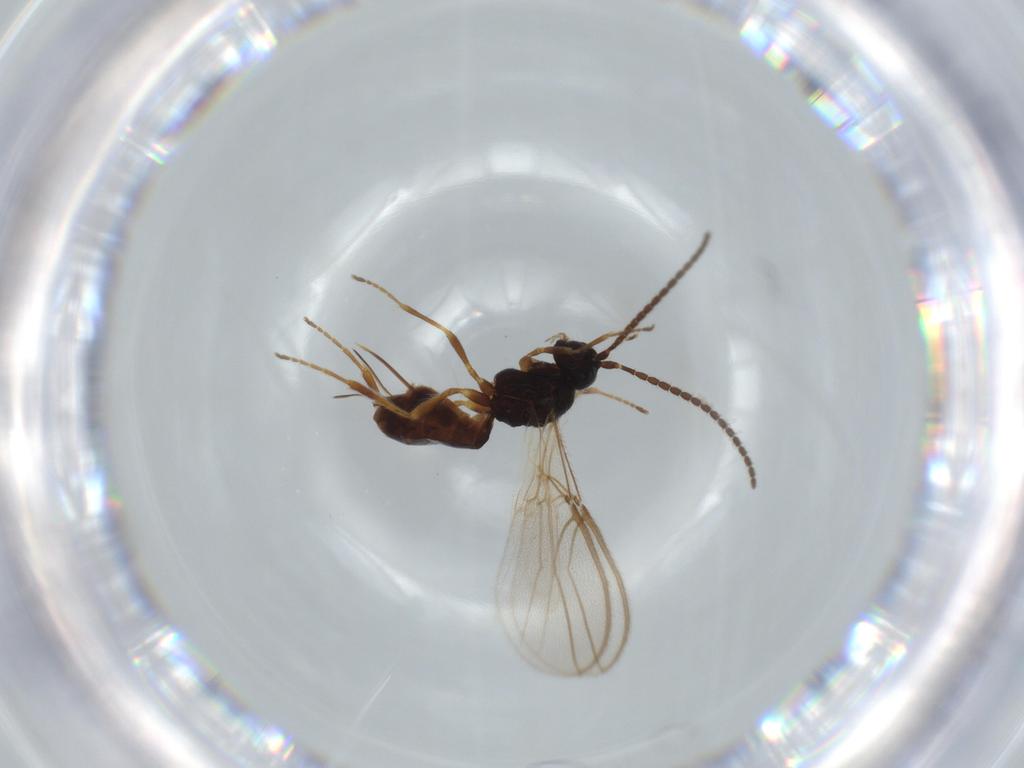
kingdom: Animalia
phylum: Arthropoda
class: Insecta
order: Hymenoptera
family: Braconidae
